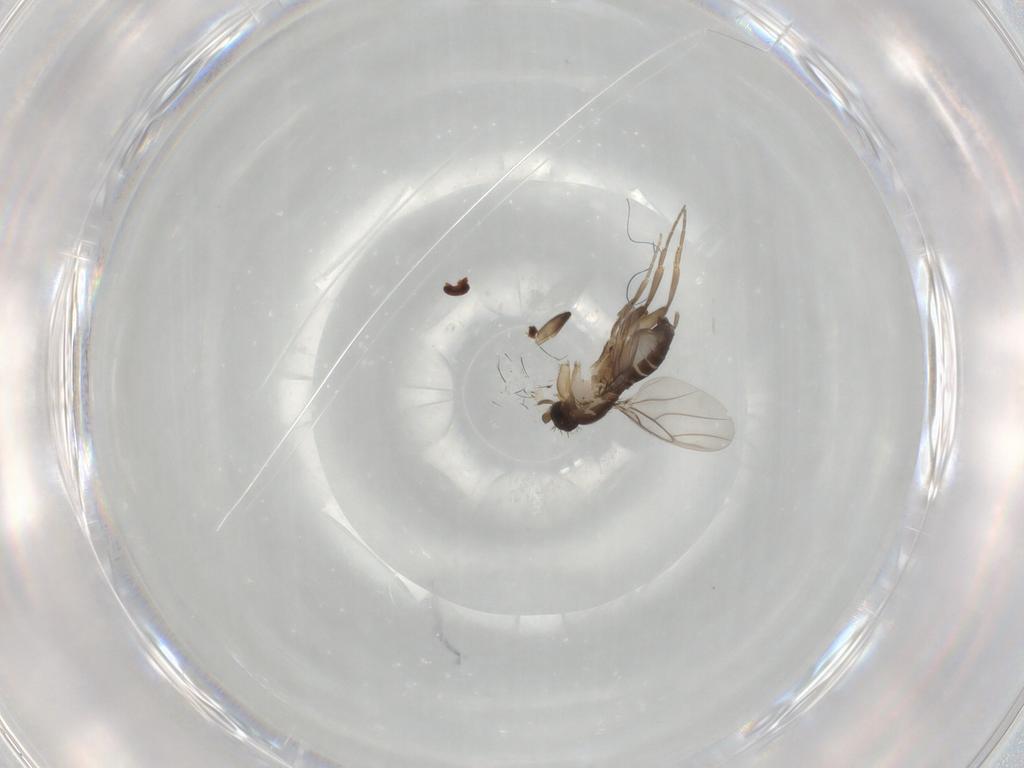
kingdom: Animalia
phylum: Arthropoda
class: Insecta
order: Diptera
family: Phoridae
